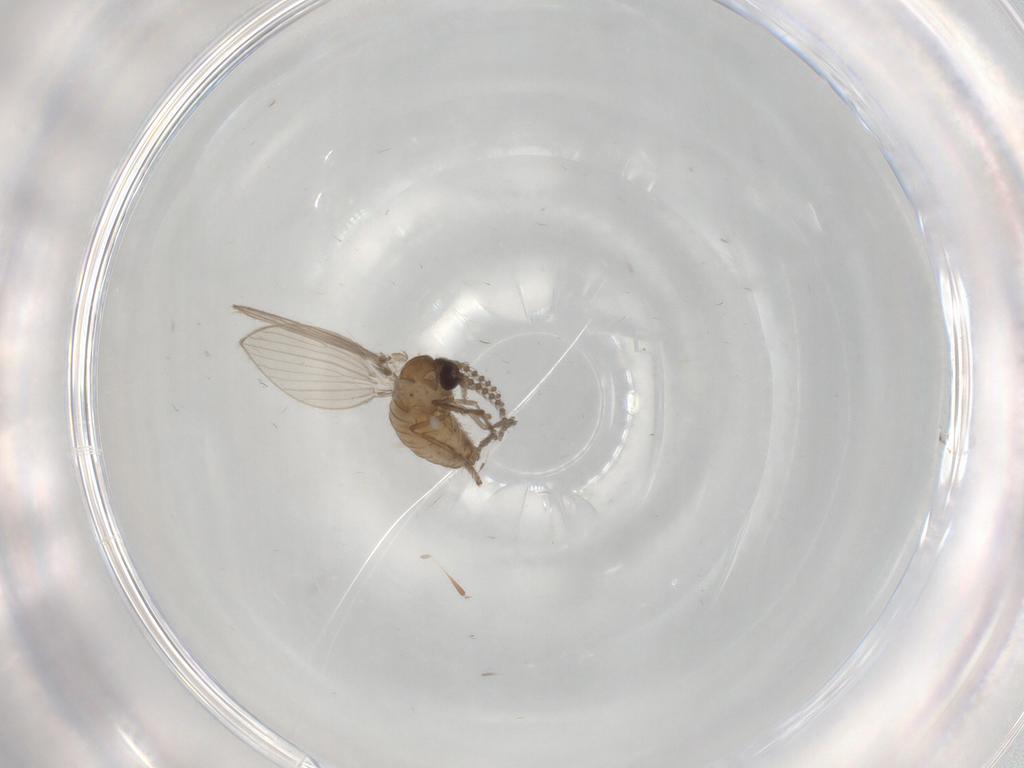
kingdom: Animalia
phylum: Arthropoda
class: Insecta
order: Diptera
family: Psychodidae
